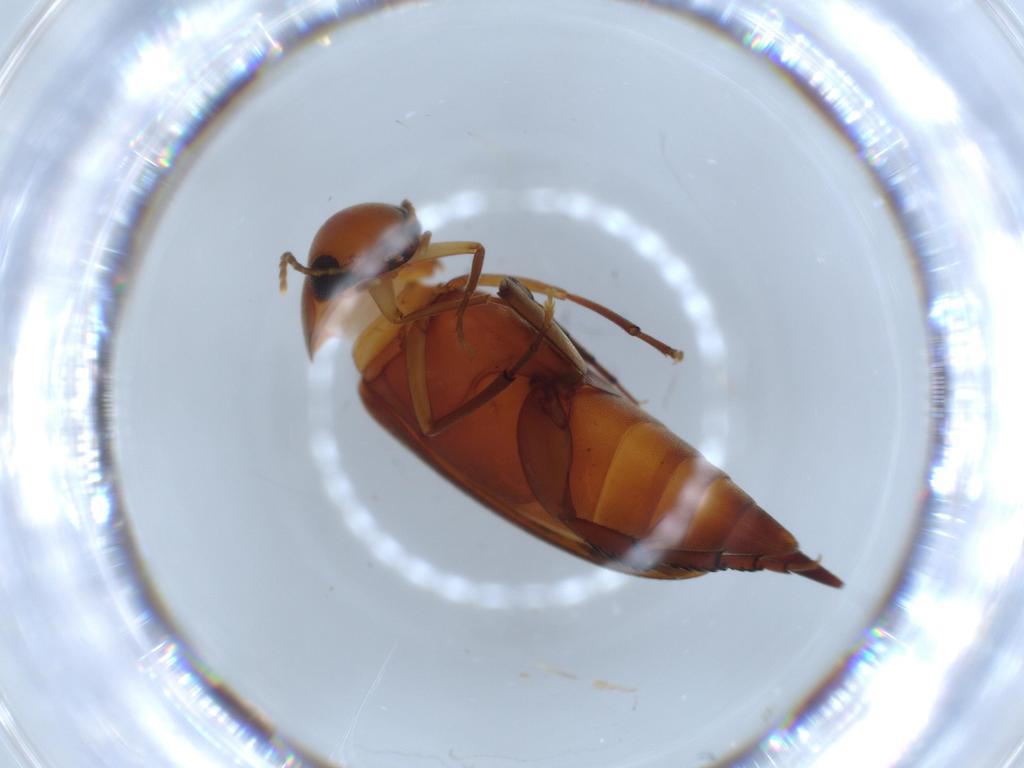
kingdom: Animalia
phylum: Arthropoda
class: Insecta
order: Coleoptera
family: Mordellidae
